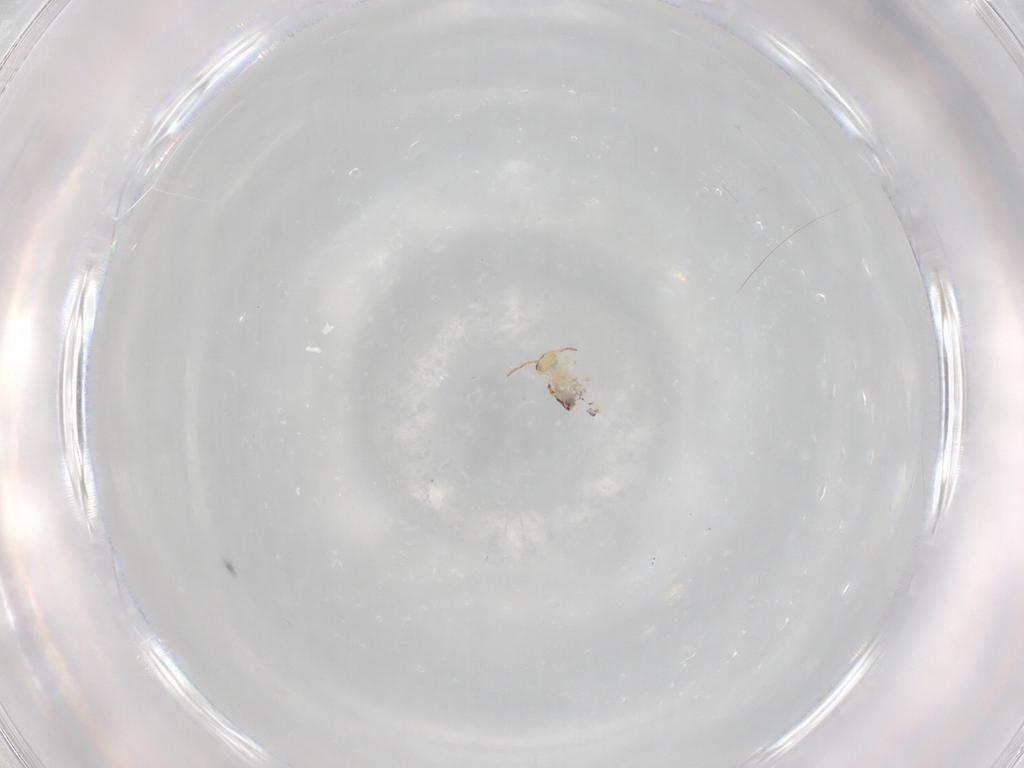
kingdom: Animalia
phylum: Arthropoda
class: Collembola
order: Symphypleona
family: Bourletiellidae
